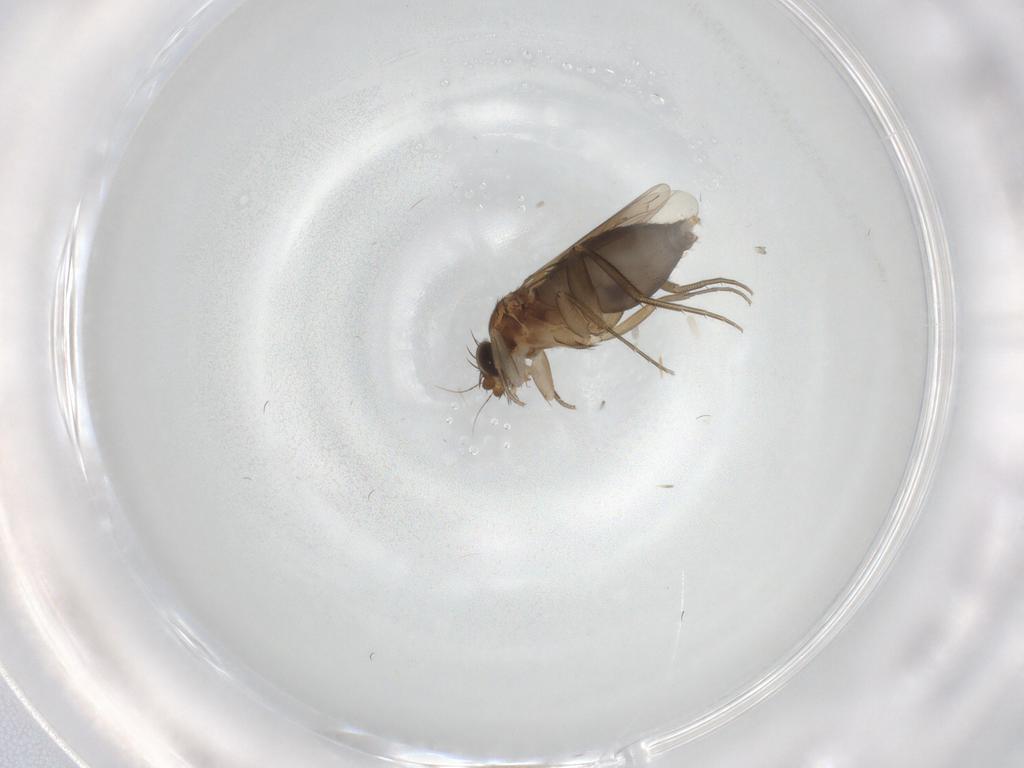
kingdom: Animalia
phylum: Arthropoda
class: Insecta
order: Diptera
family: Phoridae
